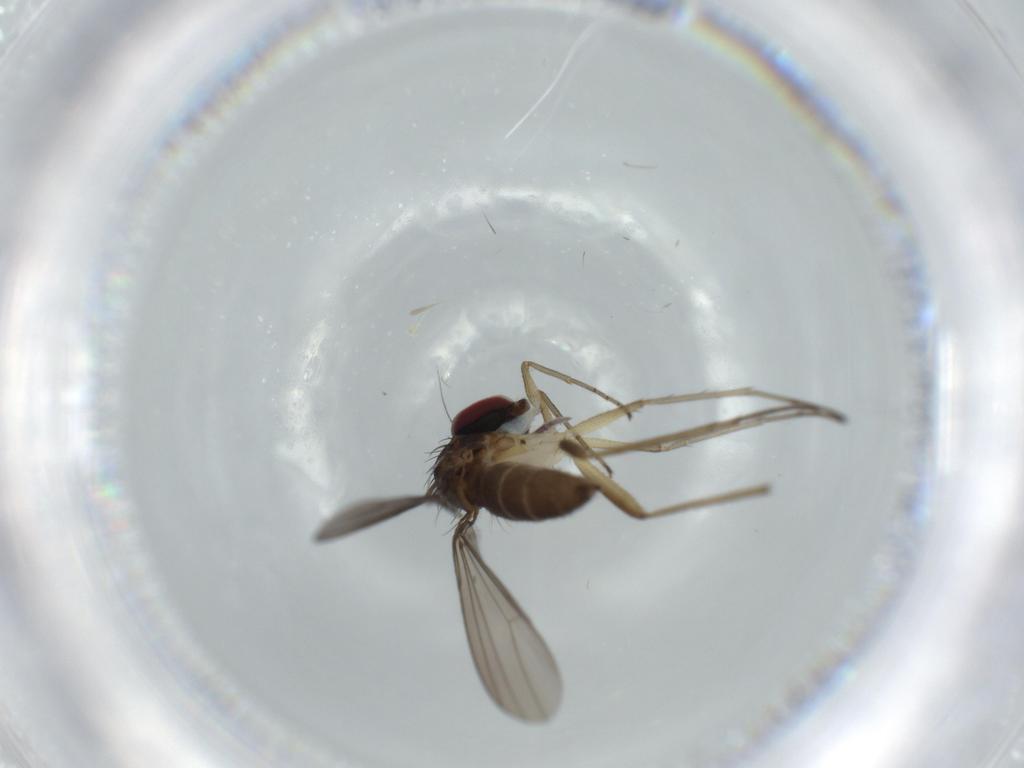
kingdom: Animalia
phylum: Arthropoda
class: Insecta
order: Diptera
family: Dolichopodidae
